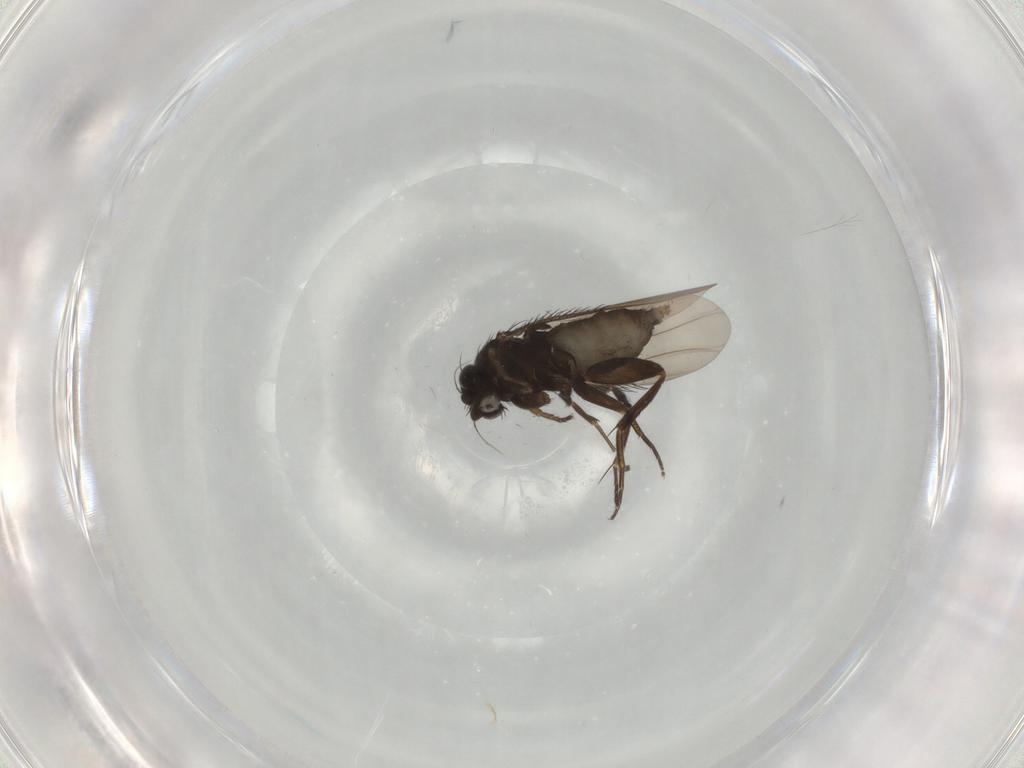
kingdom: Animalia
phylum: Arthropoda
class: Insecta
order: Diptera
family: Phoridae
